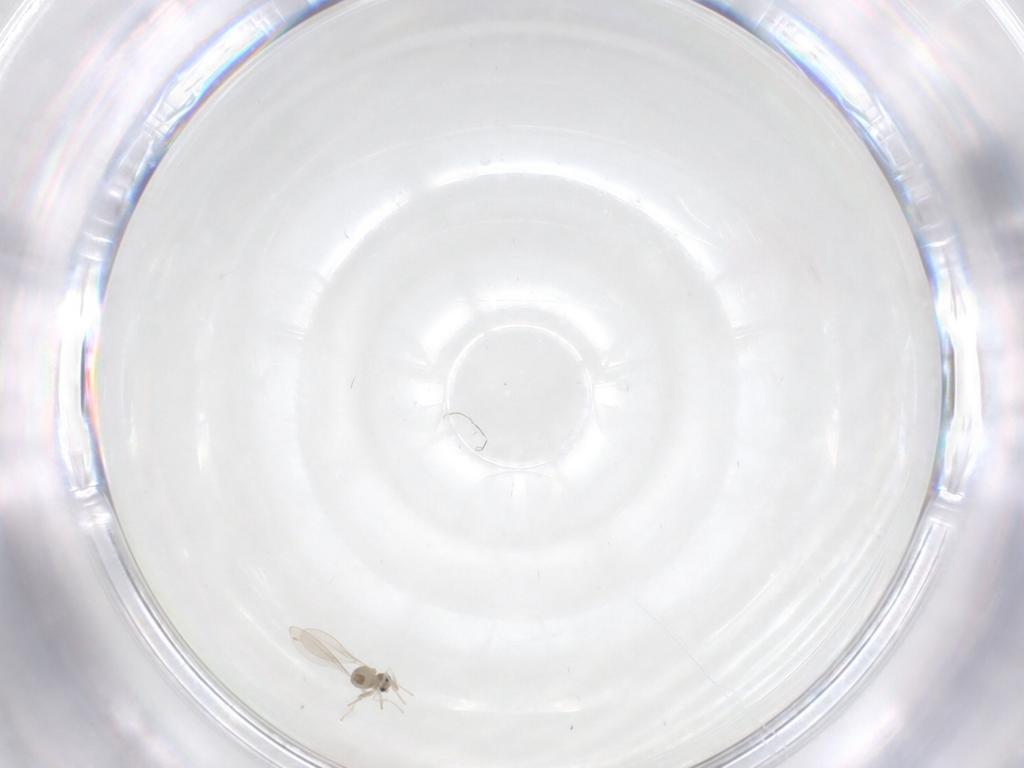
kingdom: Animalia
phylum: Arthropoda
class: Insecta
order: Diptera
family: Cecidomyiidae
